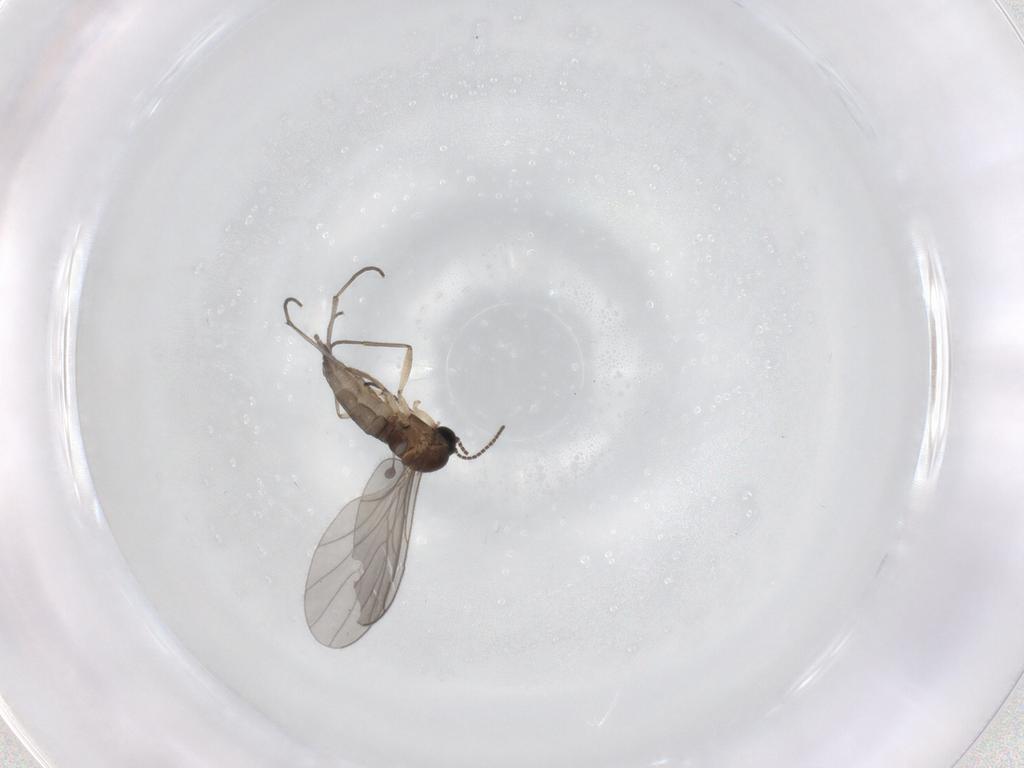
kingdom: Animalia
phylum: Arthropoda
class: Insecta
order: Diptera
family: Sciaridae
